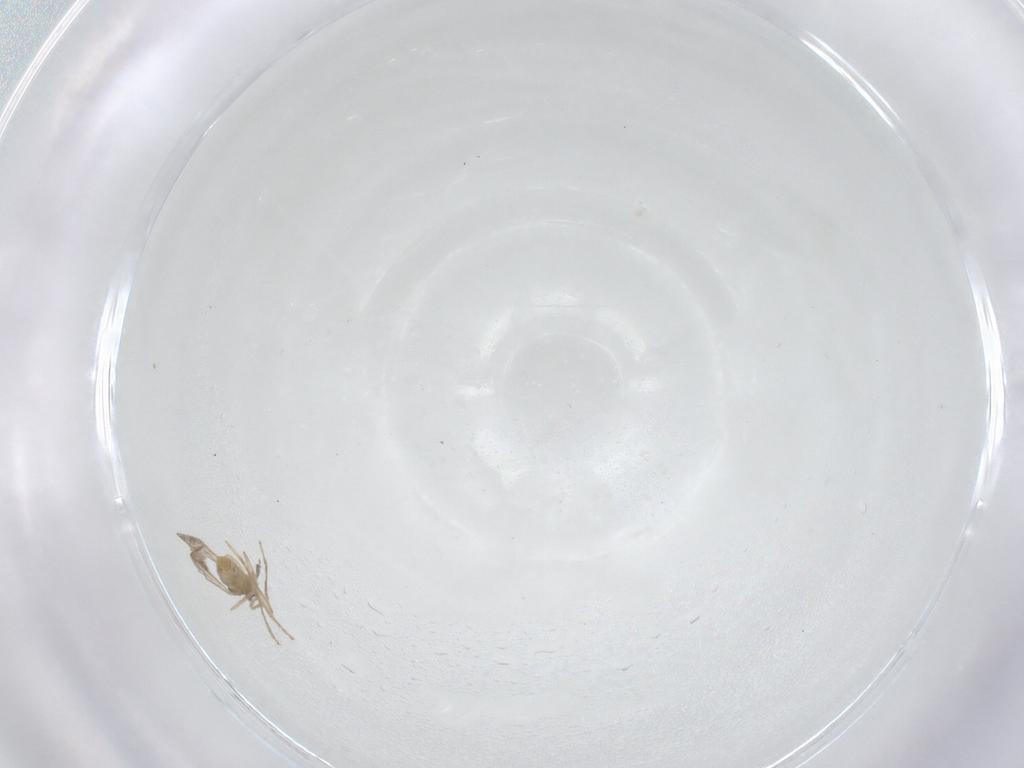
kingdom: Animalia
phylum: Arthropoda
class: Insecta
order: Diptera
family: Cecidomyiidae
